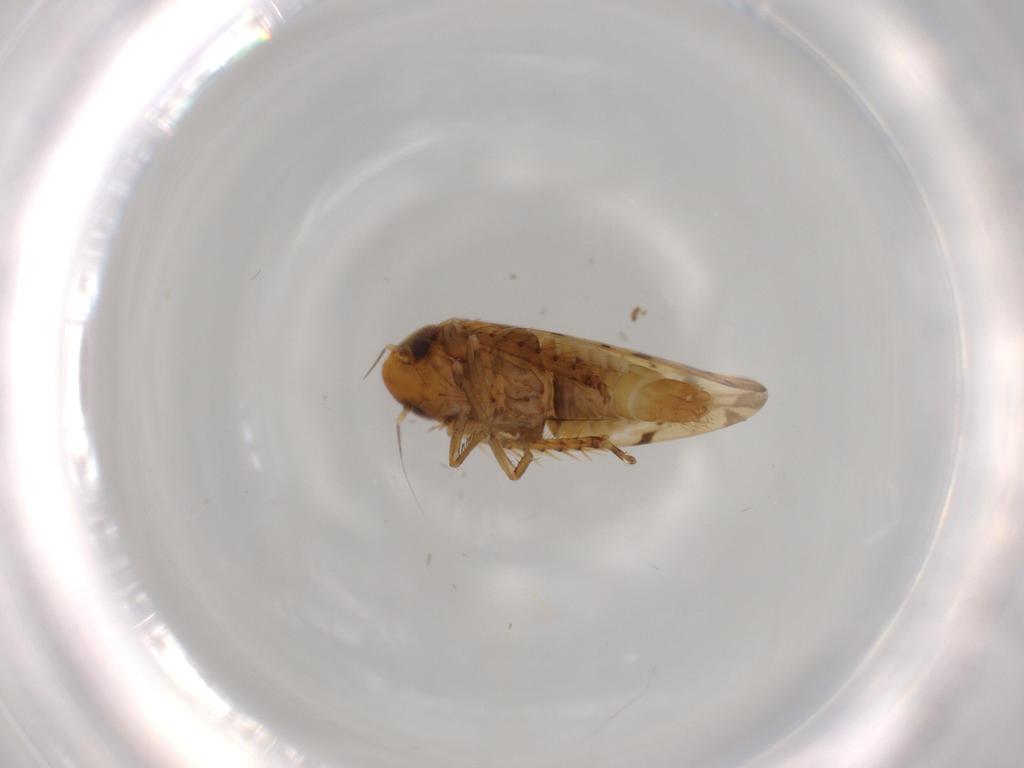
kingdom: Animalia
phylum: Arthropoda
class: Insecta
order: Hemiptera
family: Cicadellidae
